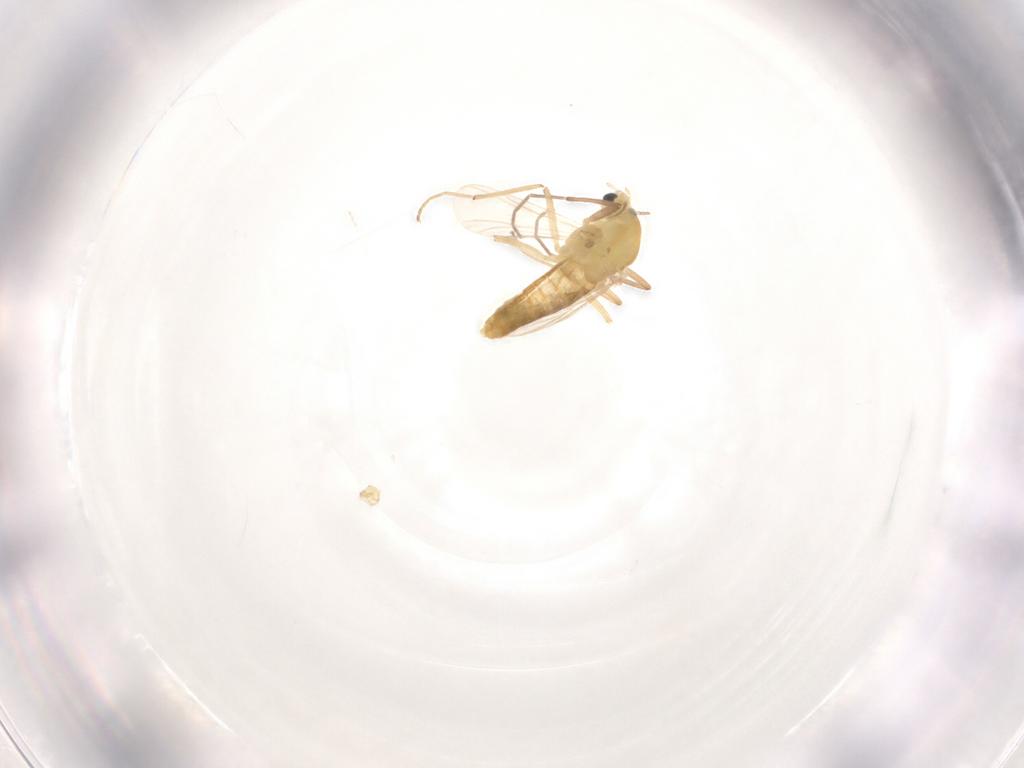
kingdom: Animalia
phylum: Arthropoda
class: Insecta
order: Diptera
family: Chironomidae
